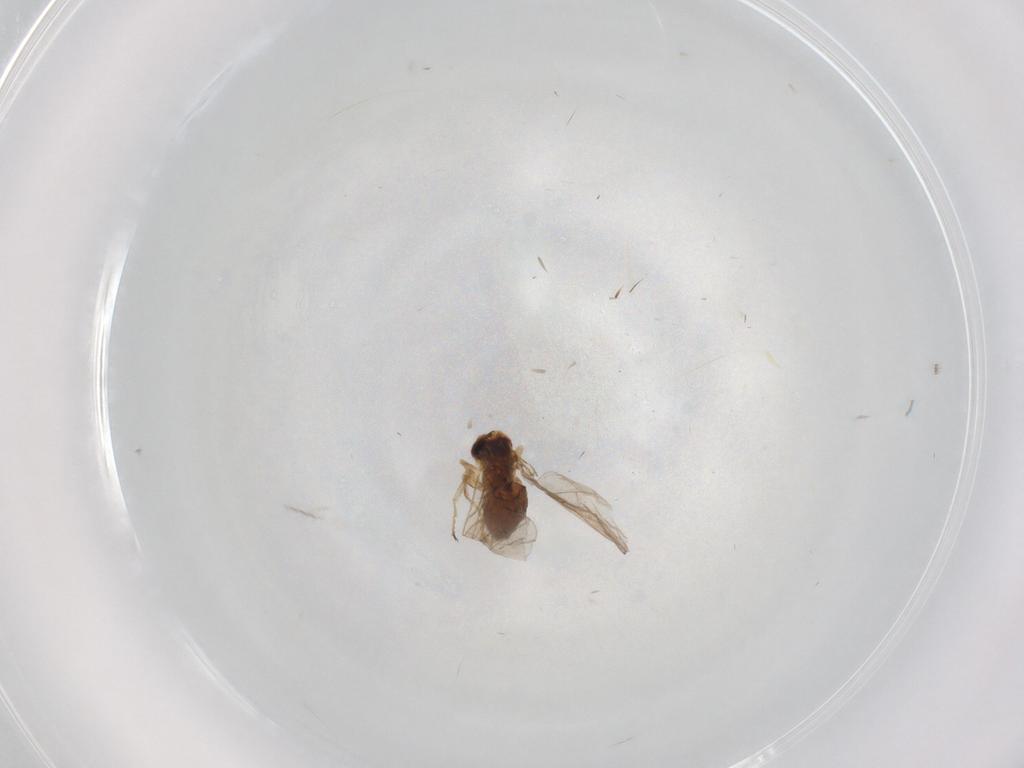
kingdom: Animalia
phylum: Arthropoda
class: Insecta
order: Diptera
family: Chloropidae
